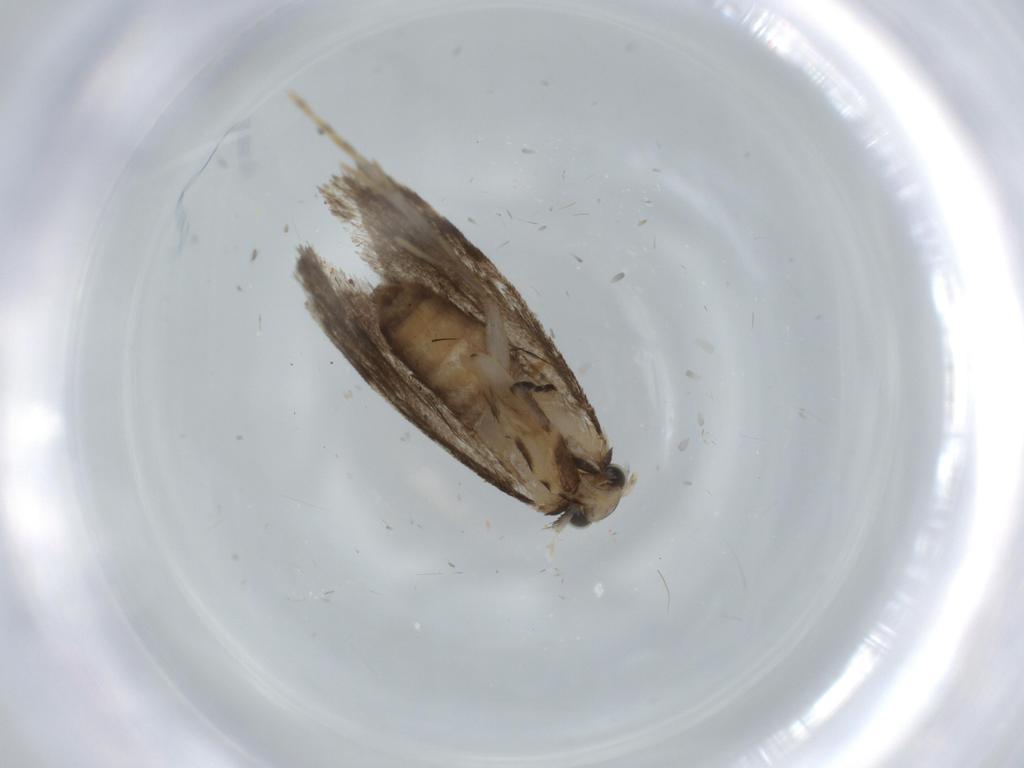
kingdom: Animalia
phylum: Arthropoda
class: Insecta
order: Lepidoptera
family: Tineidae
